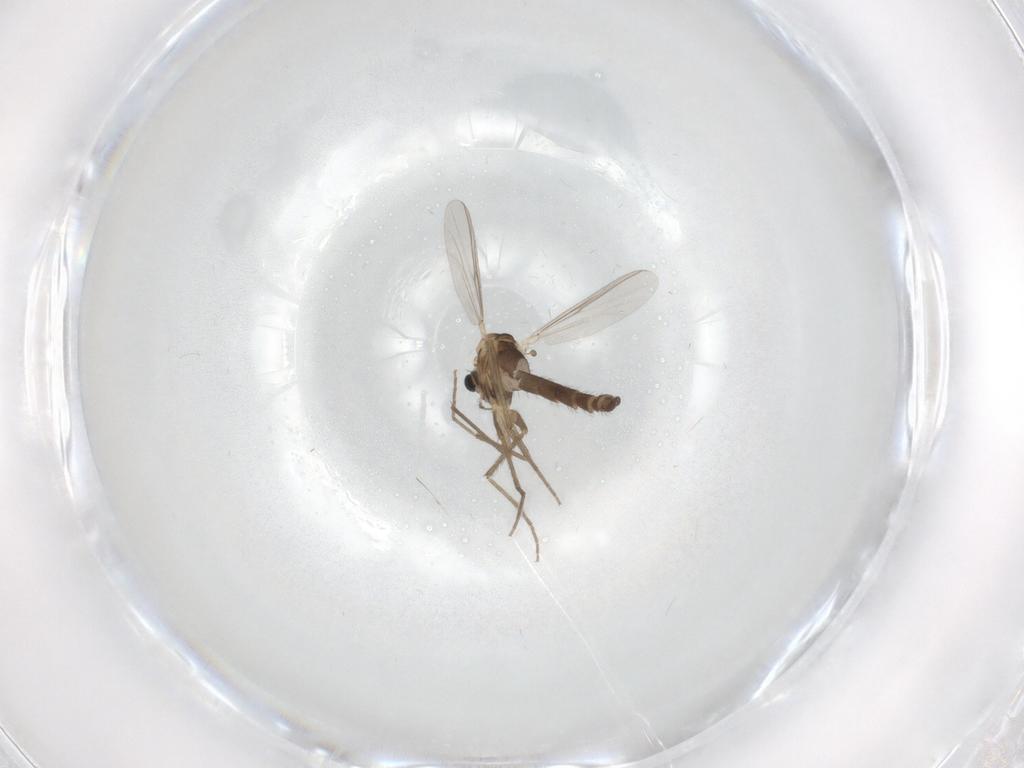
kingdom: Animalia
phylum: Arthropoda
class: Insecta
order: Diptera
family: Chironomidae
